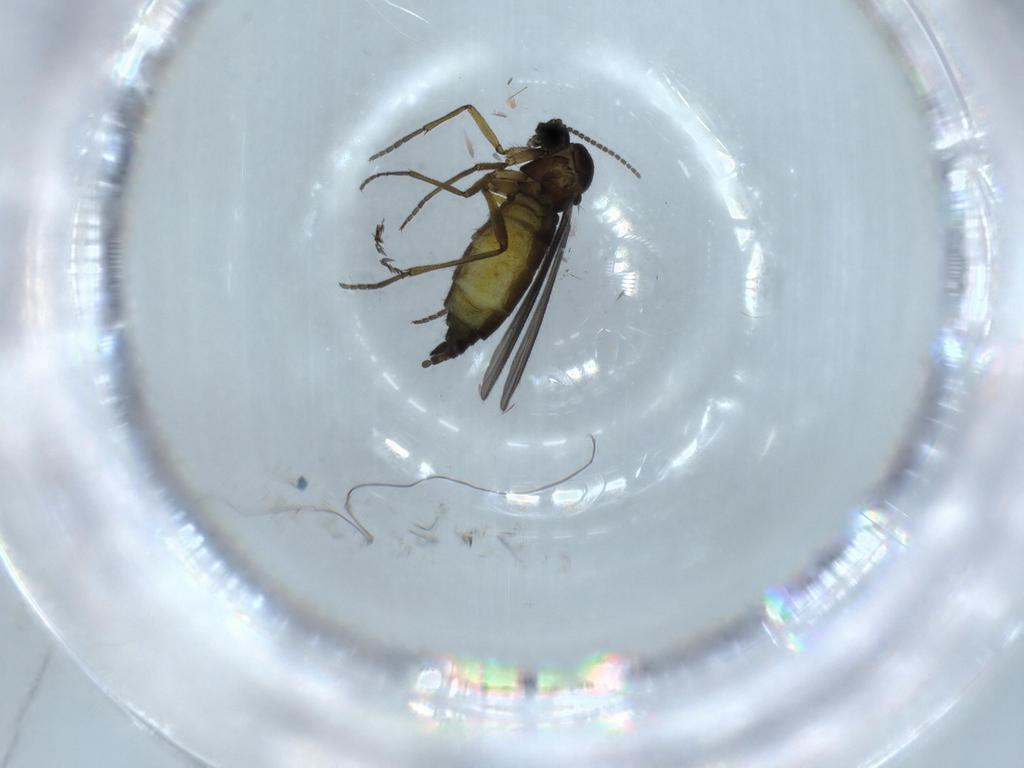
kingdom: Animalia
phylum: Arthropoda
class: Insecta
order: Diptera
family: Sciaridae
